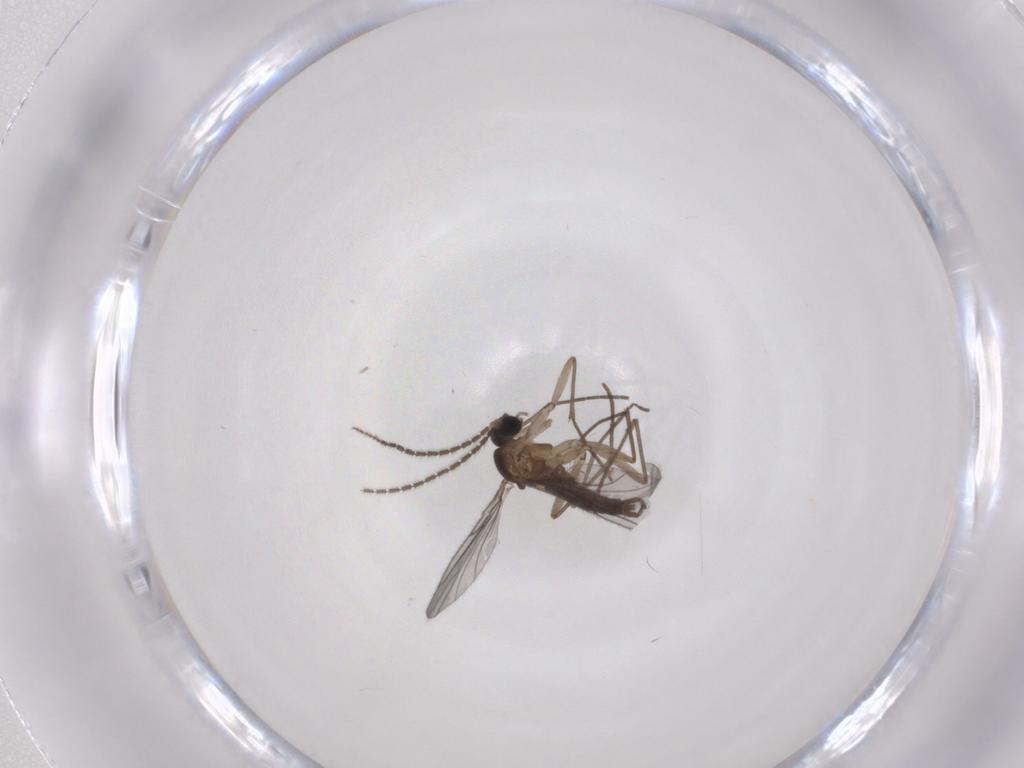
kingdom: Animalia
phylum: Arthropoda
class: Insecta
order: Diptera
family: Sciaridae
